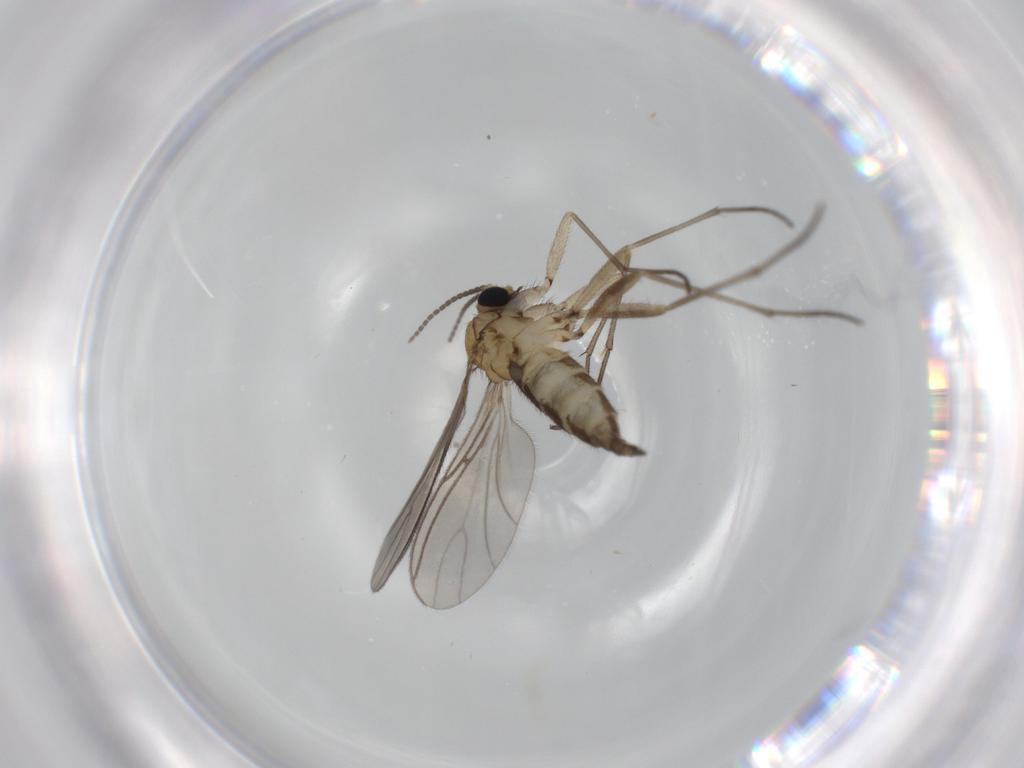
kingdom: Animalia
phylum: Arthropoda
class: Insecta
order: Diptera
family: Sciaridae
